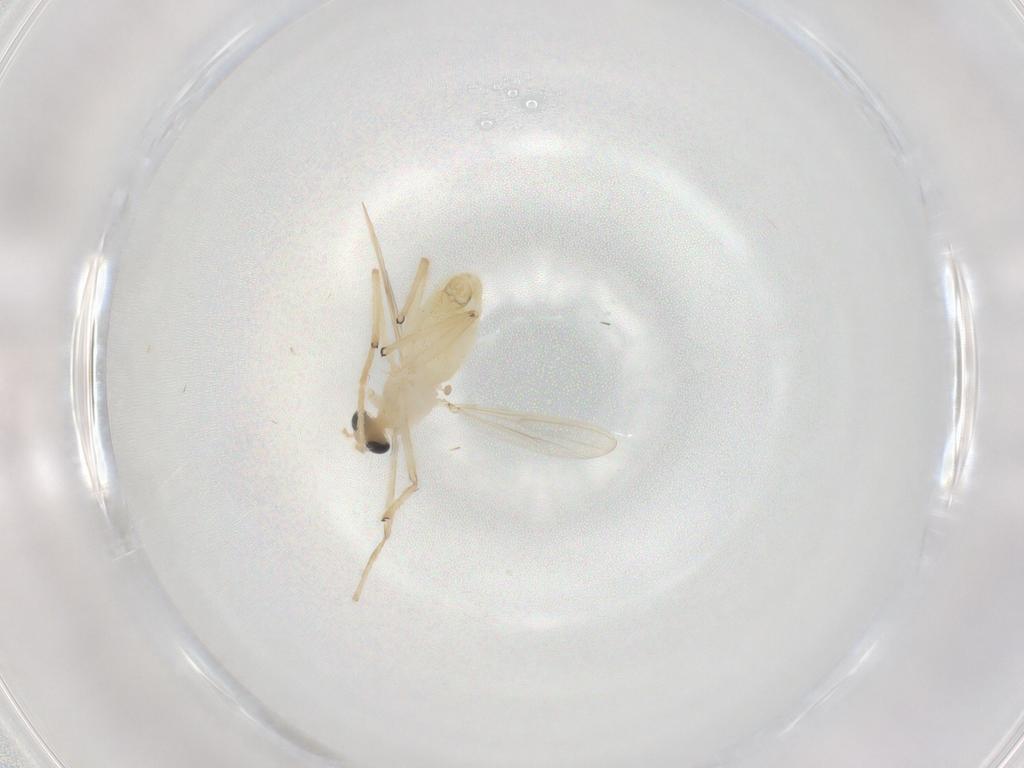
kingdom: Animalia
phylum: Arthropoda
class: Insecta
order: Diptera
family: Chironomidae
